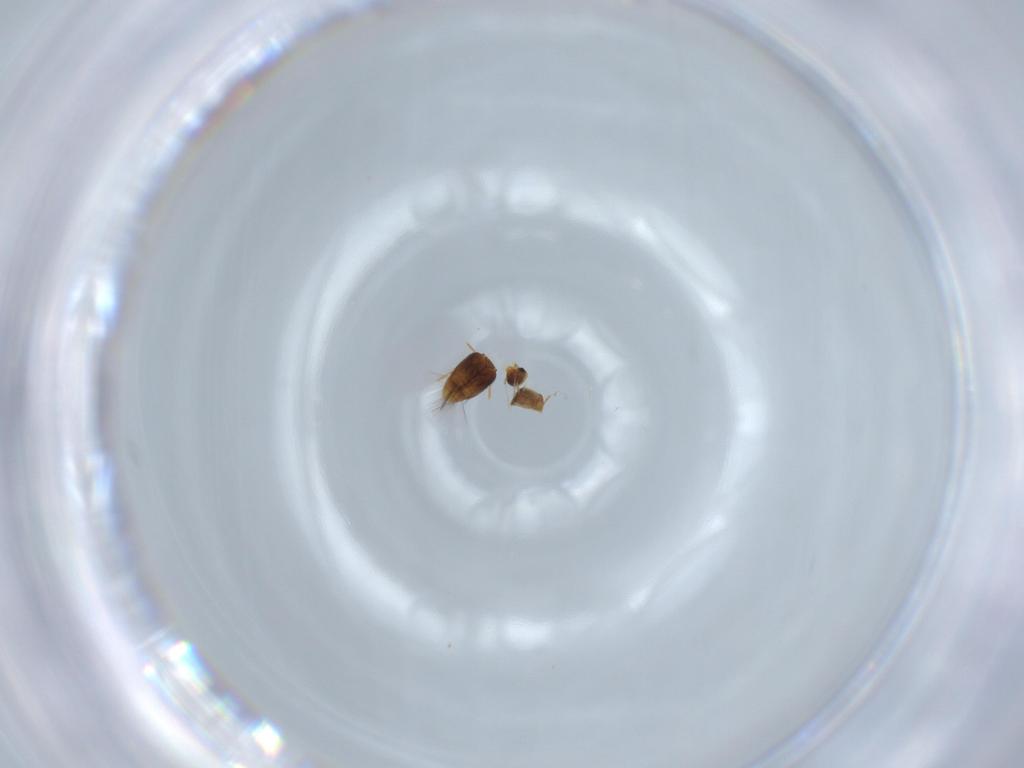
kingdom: Animalia
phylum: Arthropoda
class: Insecta
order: Coleoptera
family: Ptiliidae
